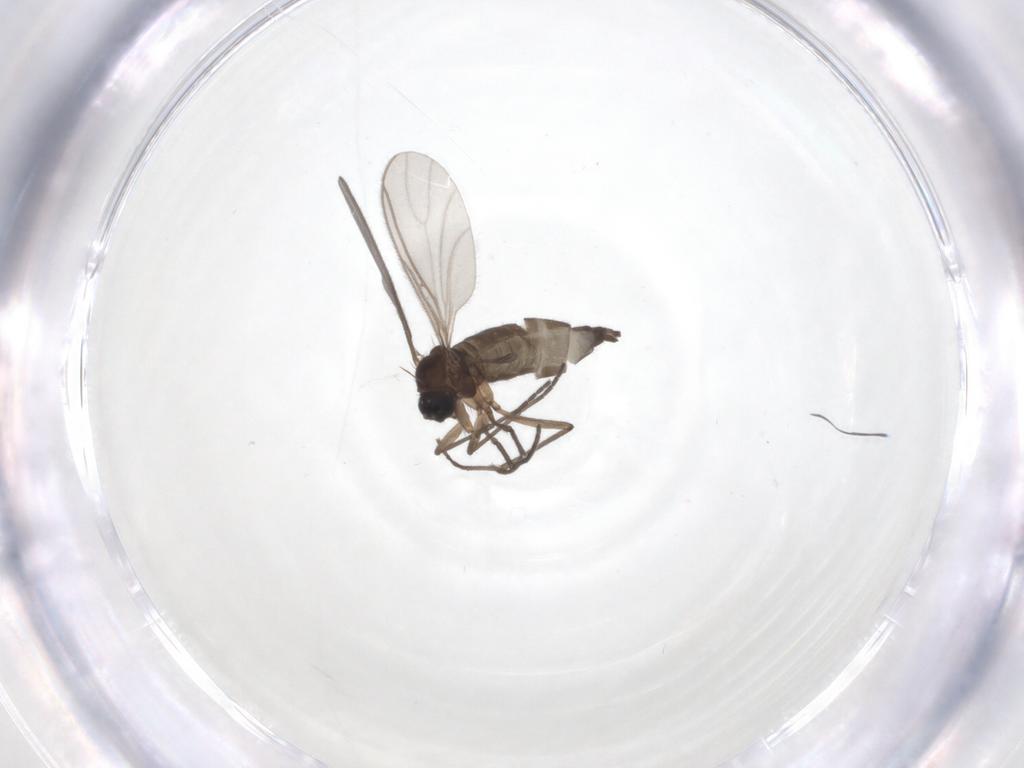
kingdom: Animalia
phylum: Arthropoda
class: Insecta
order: Diptera
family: Sciaridae
